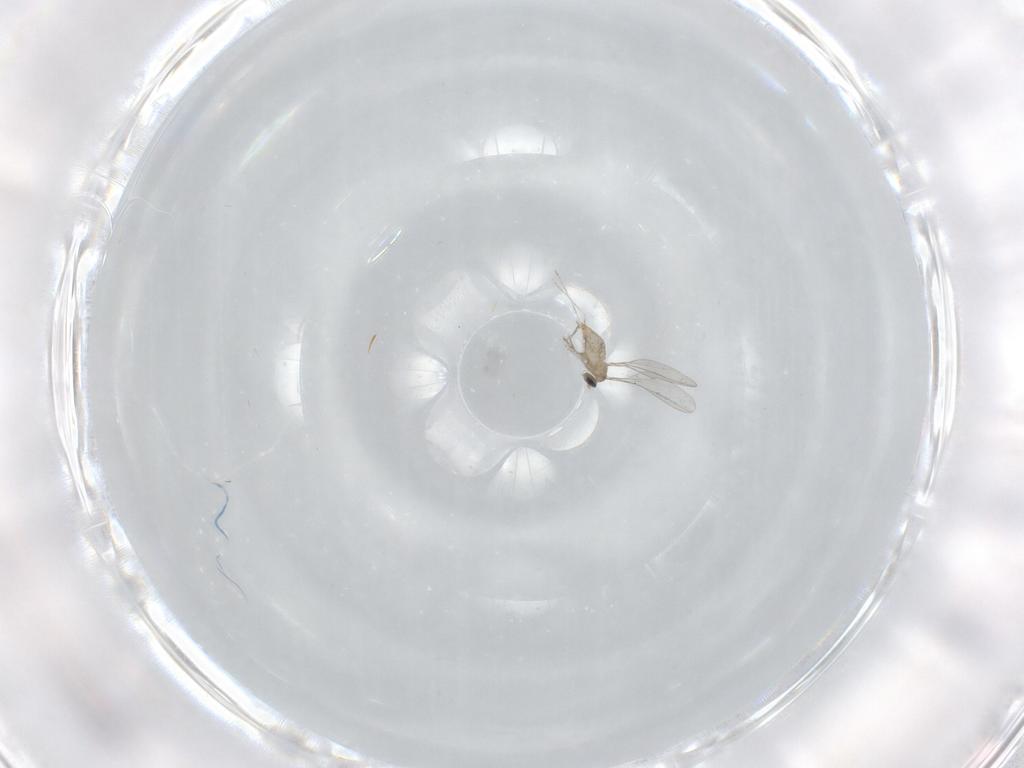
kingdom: Animalia
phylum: Arthropoda
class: Insecta
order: Diptera
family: Cecidomyiidae
